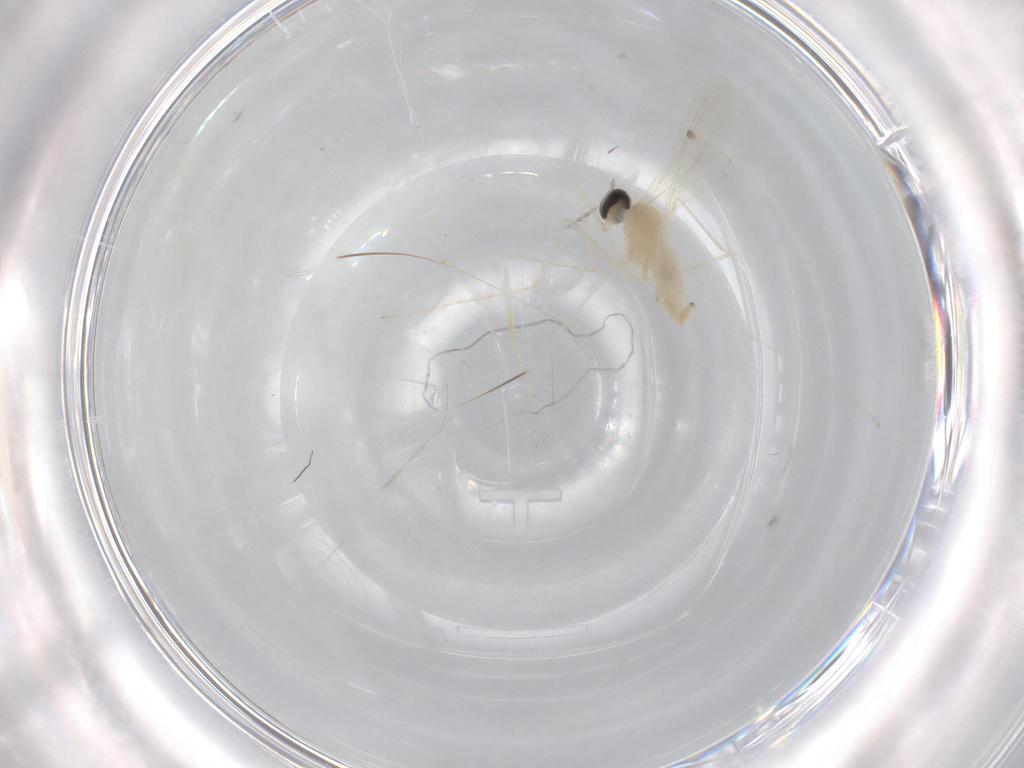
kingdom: Animalia
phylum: Arthropoda
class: Insecta
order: Diptera
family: Cecidomyiidae
